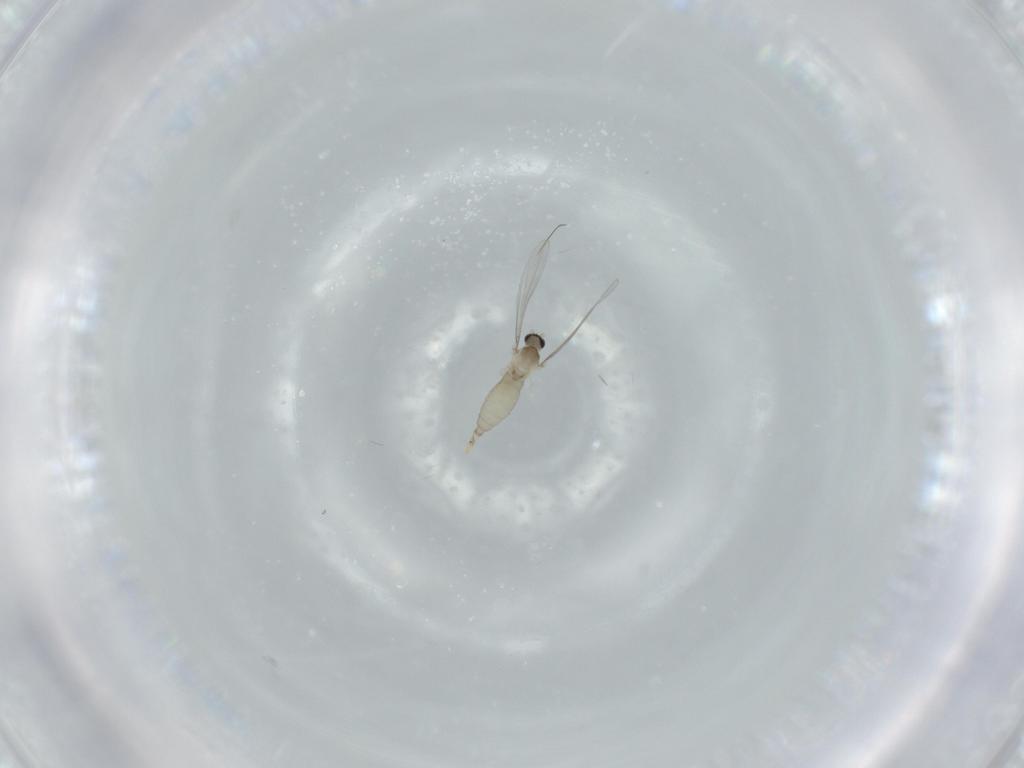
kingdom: Animalia
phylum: Arthropoda
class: Insecta
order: Diptera
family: Cecidomyiidae
